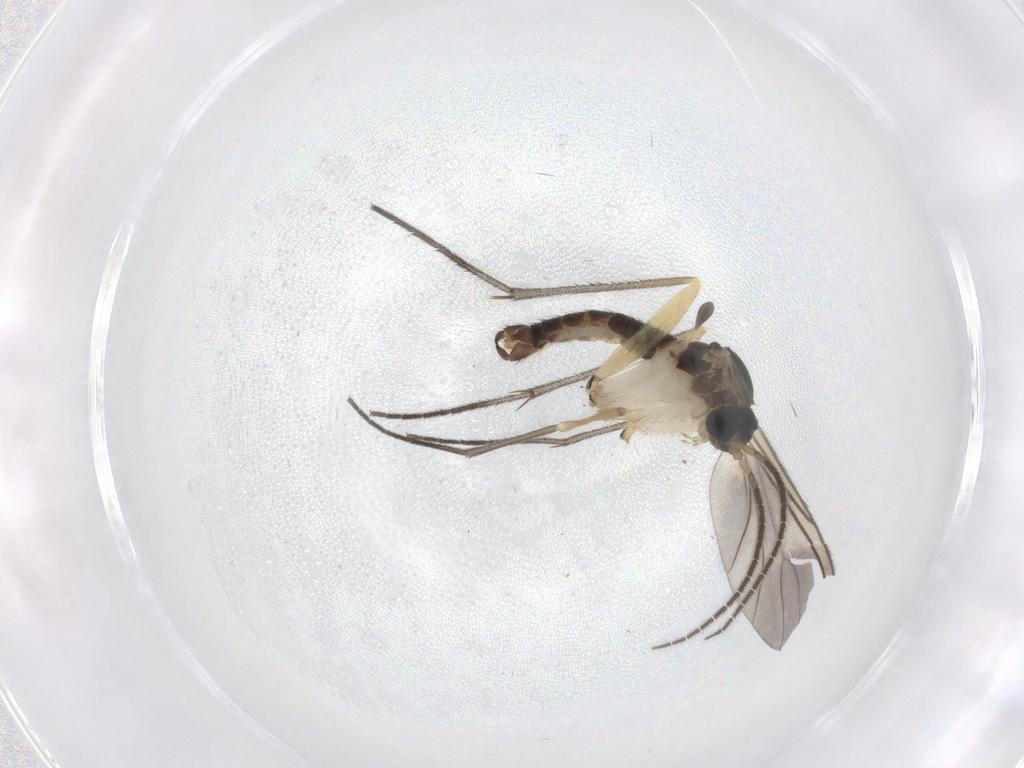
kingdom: Animalia
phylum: Arthropoda
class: Insecta
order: Diptera
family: Sciaridae
